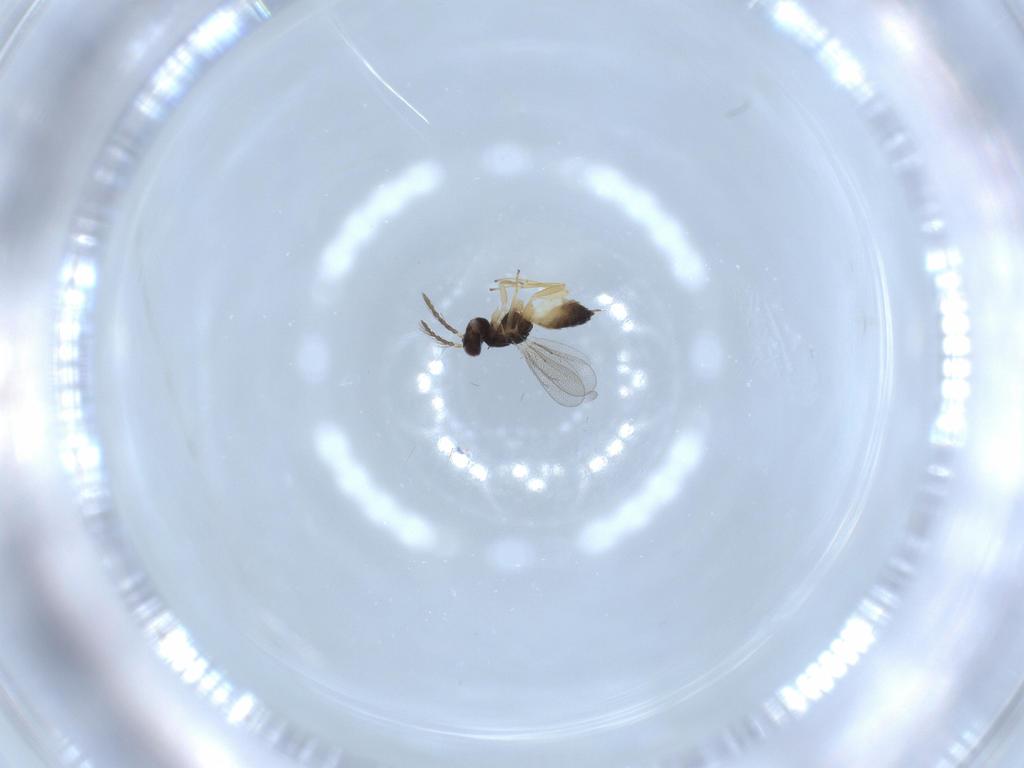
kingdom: Animalia
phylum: Arthropoda
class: Insecta
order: Hymenoptera
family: Eulophidae
